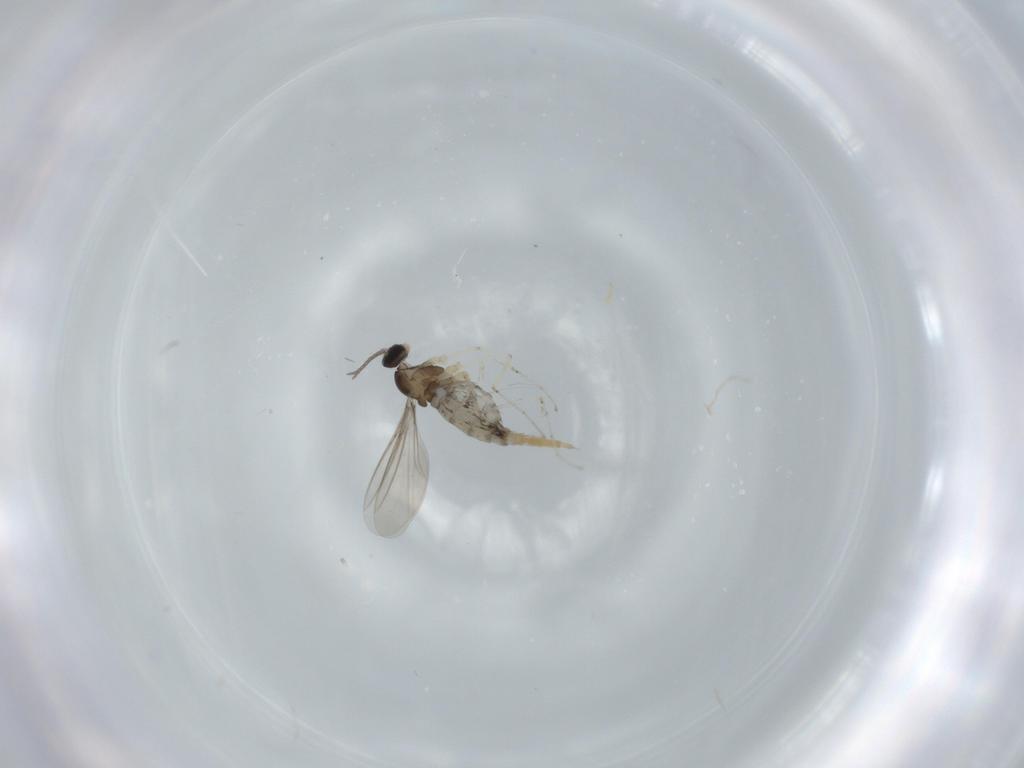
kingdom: Animalia
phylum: Arthropoda
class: Insecta
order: Diptera
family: Cecidomyiidae
